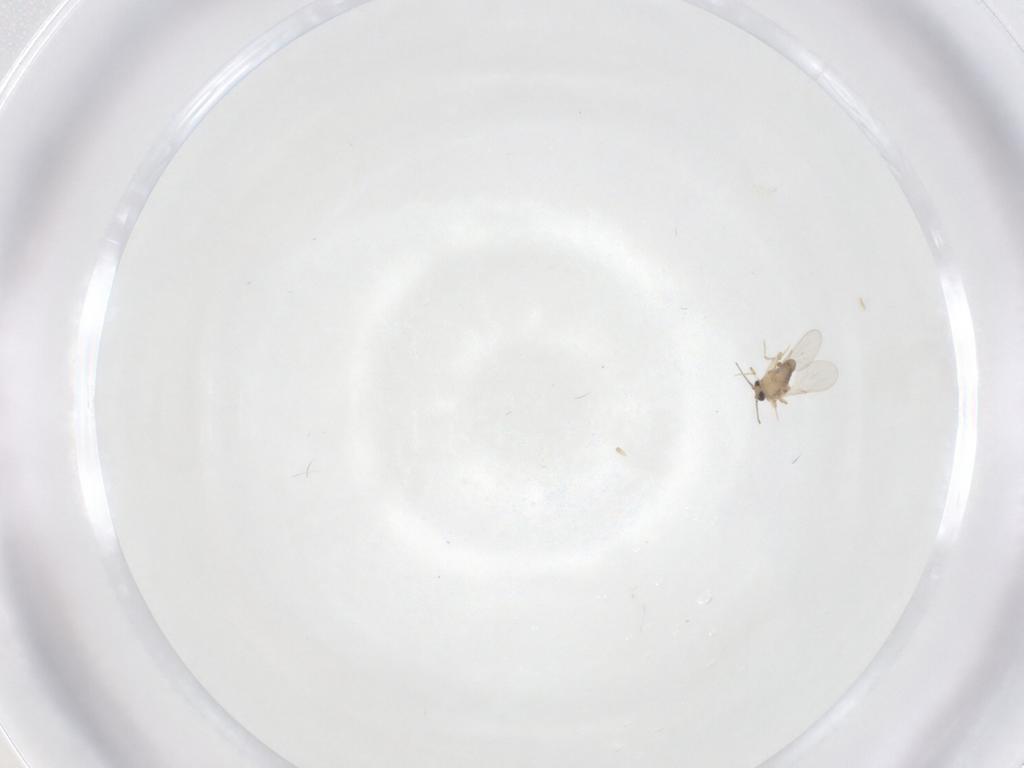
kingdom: Animalia
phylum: Arthropoda
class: Insecta
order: Diptera
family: Ceratopogonidae
